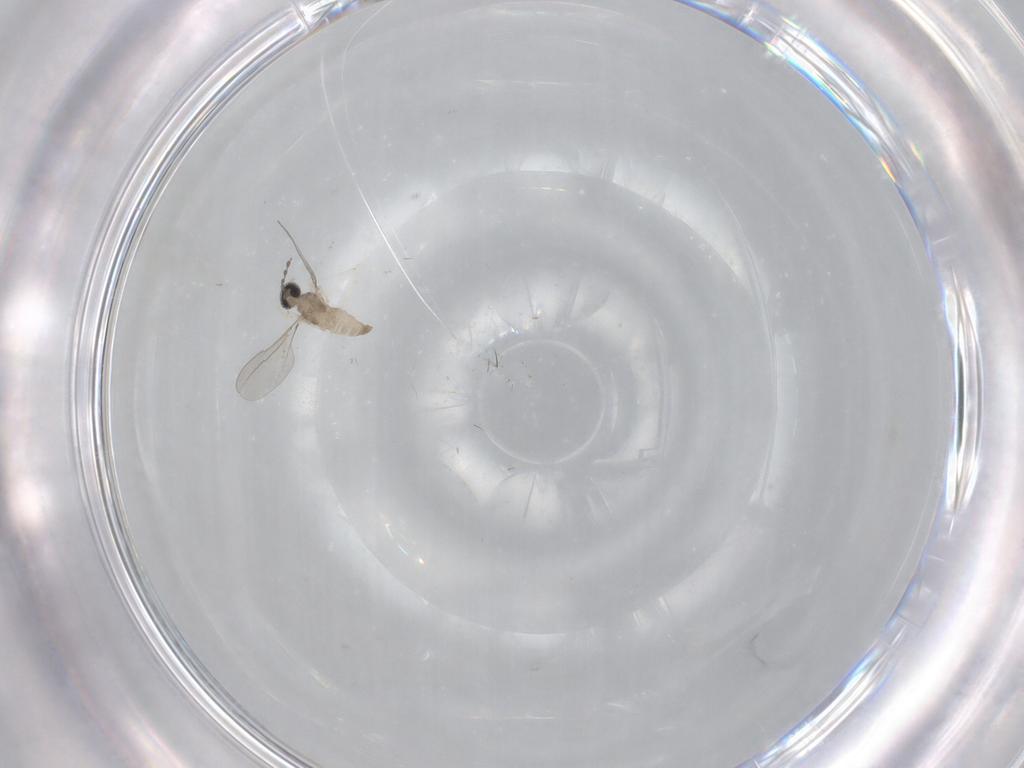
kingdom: Animalia
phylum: Arthropoda
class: Insecta
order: Diptera
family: Cecidomyiidae
